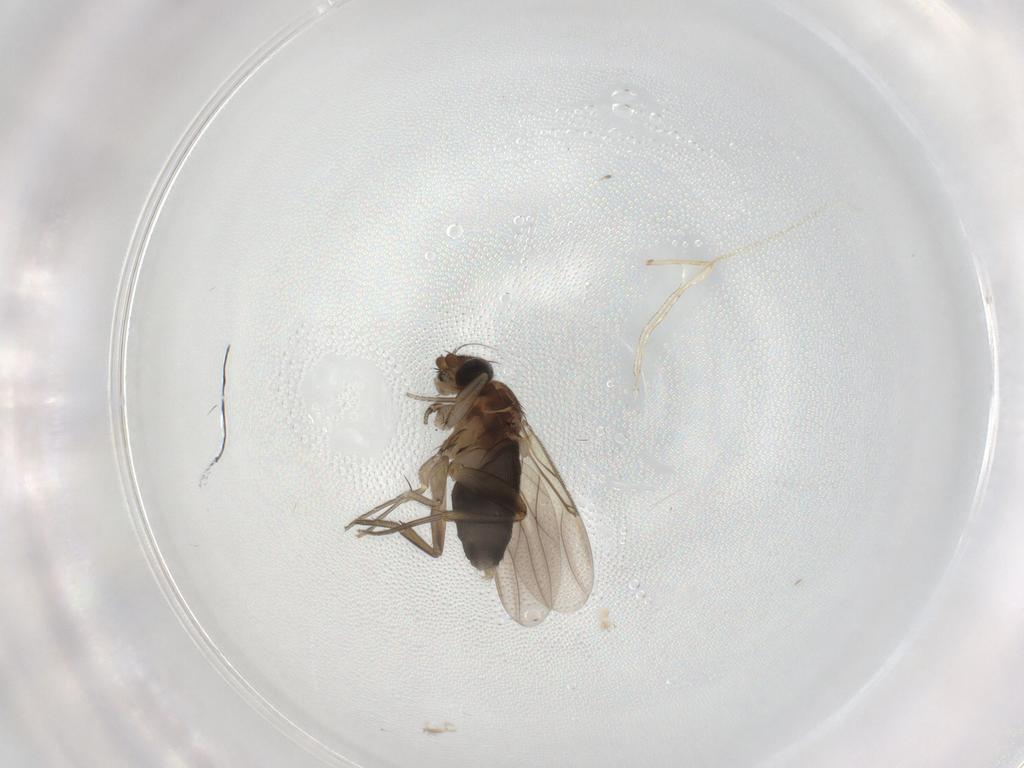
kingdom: Animalia
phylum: Arthropoda
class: Insecta
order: Diptera
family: Phoridae
